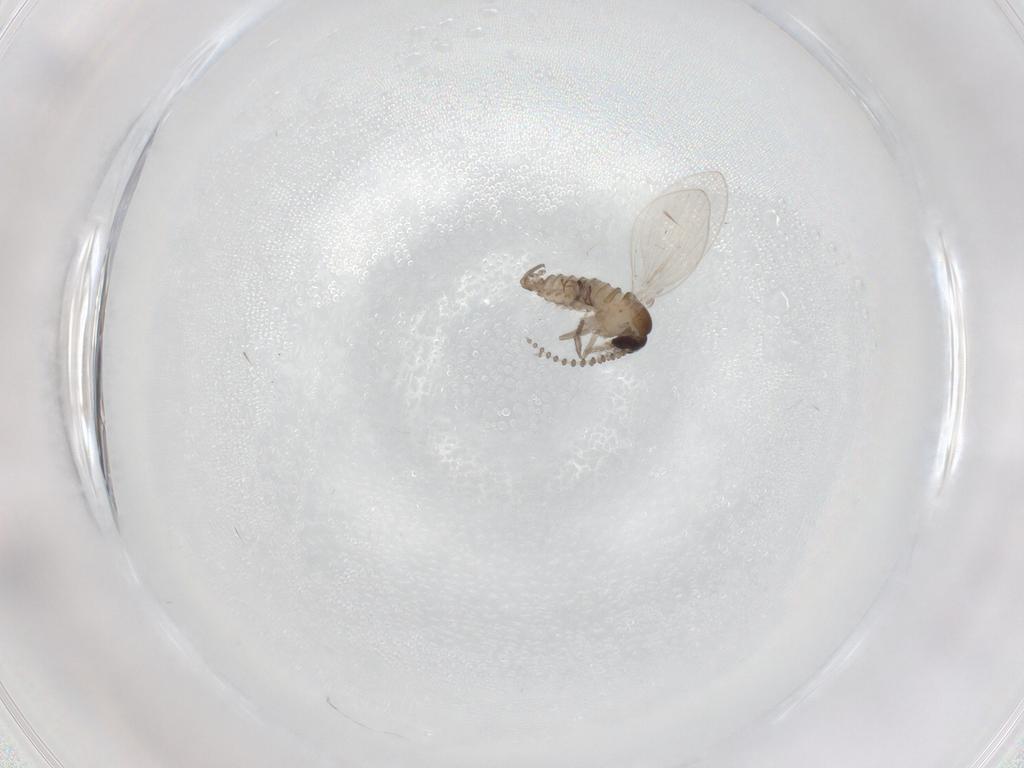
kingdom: Animalia
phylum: Arthropoda
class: Insecta
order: Diptera
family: Psychodidae
